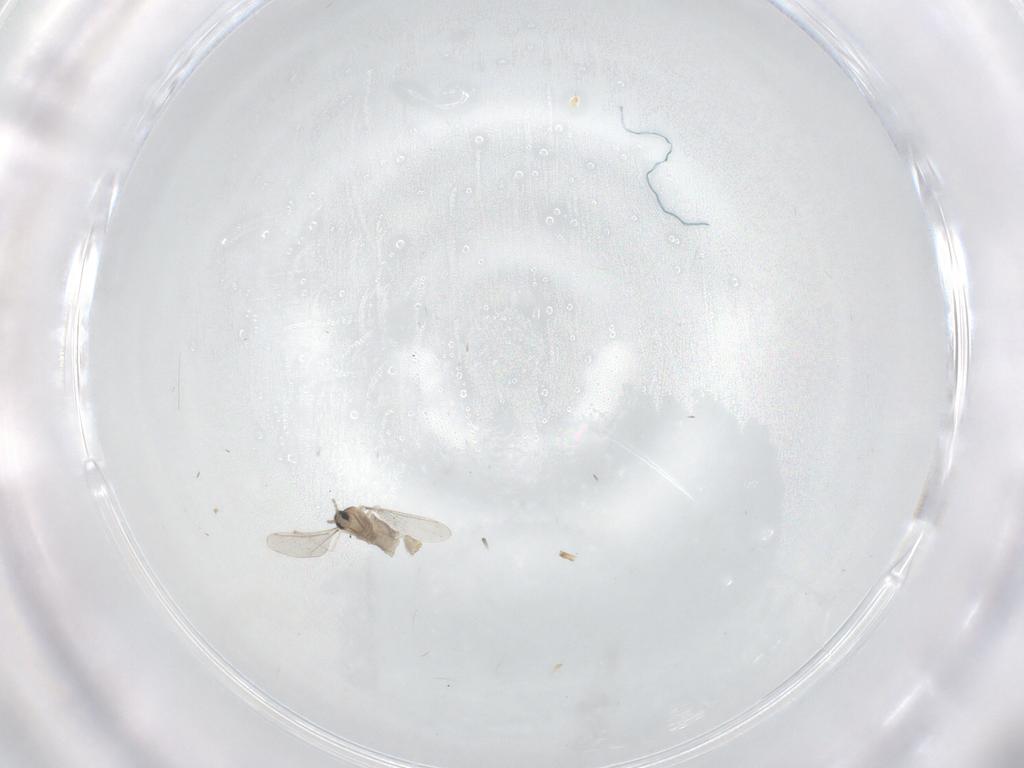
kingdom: Animalia
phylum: Arthropoda
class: Insecta
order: Diptera
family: Cecidomyiidae
